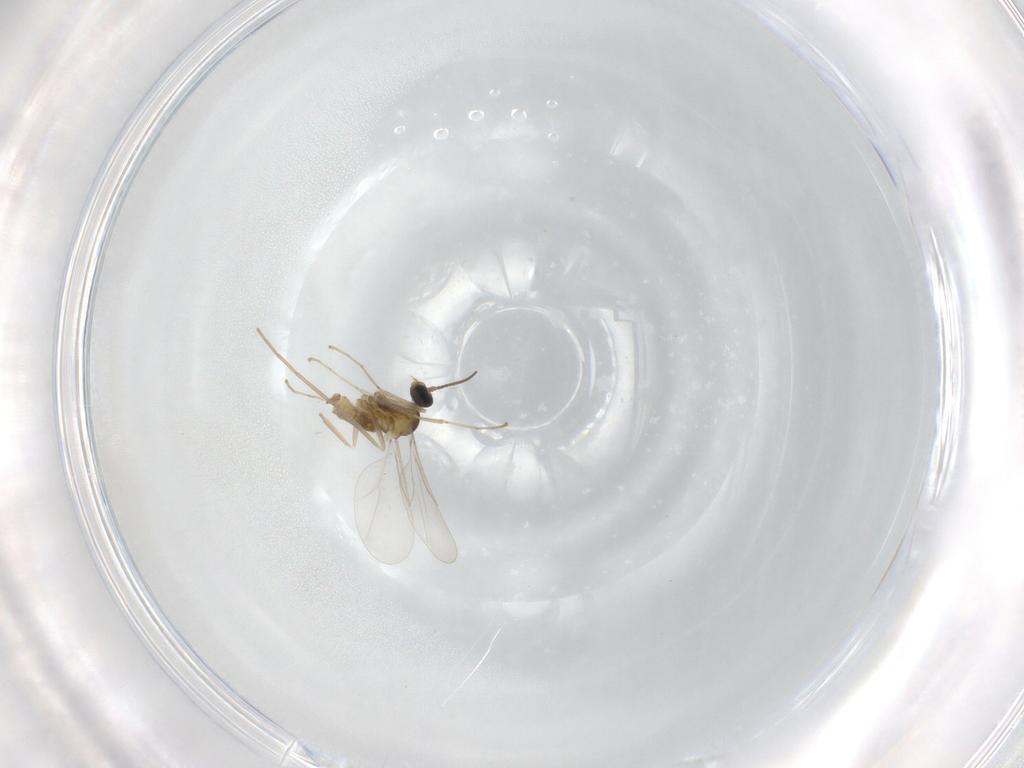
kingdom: Animalia
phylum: Arthropoda
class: Insecta
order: Diptera
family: Cecidomyiidae
